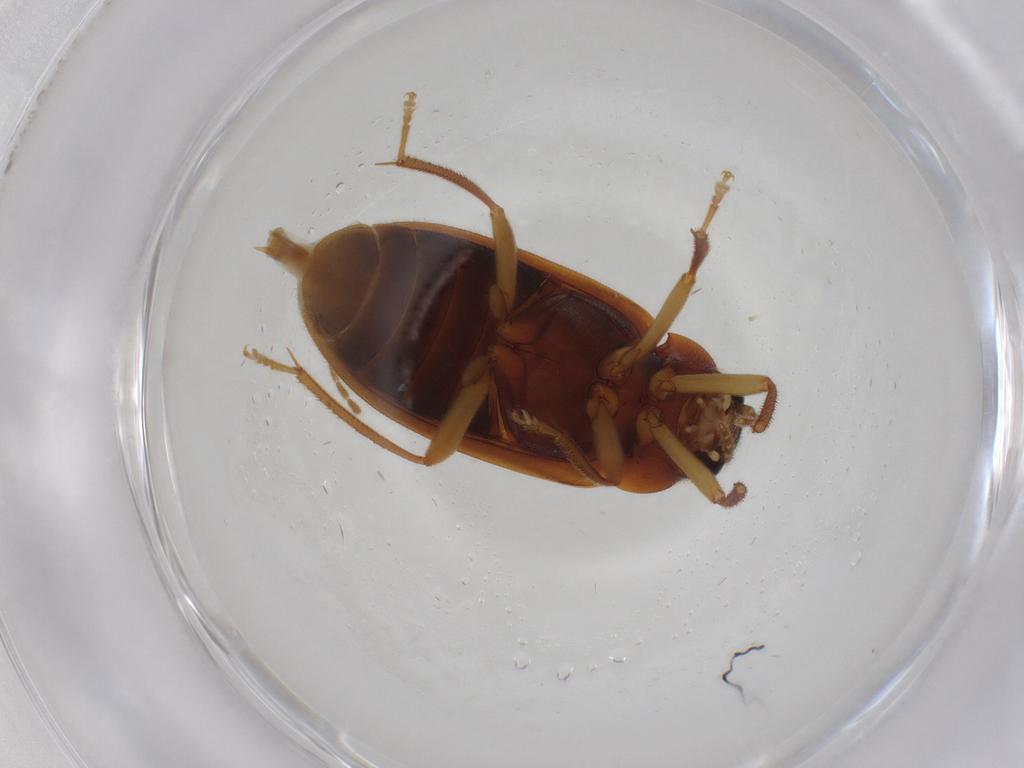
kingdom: Animalia
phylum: Arthropoda
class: Insecta
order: Coleoptera
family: Ptilodactylidae
